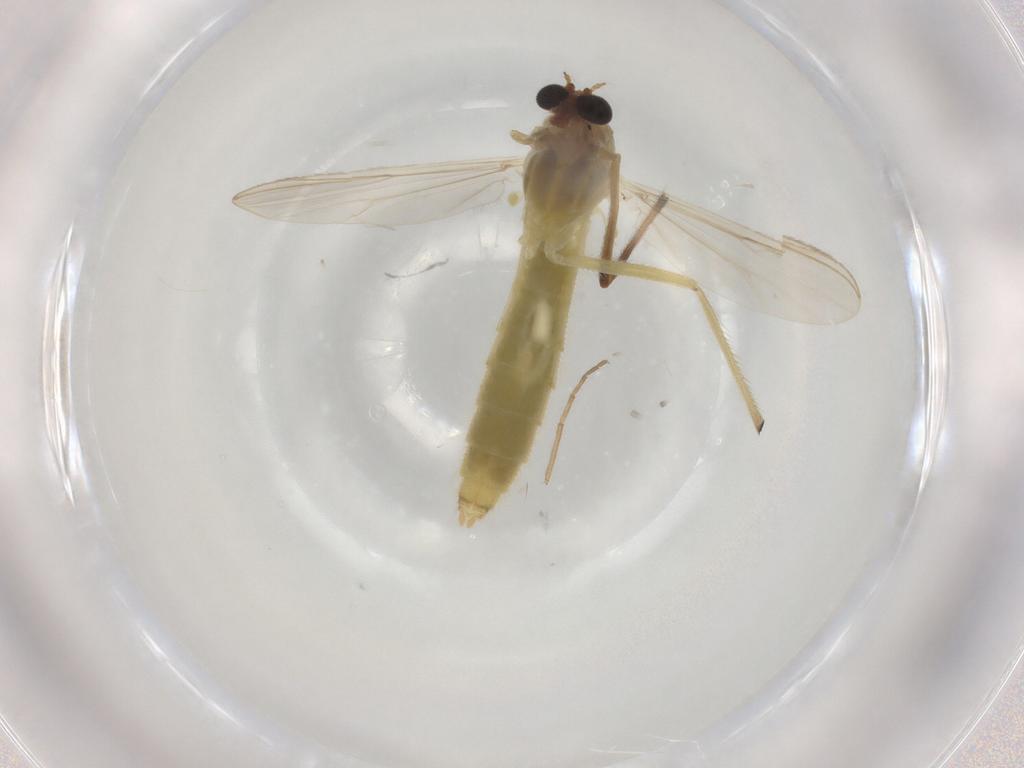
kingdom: Animalia
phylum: Arthropoda
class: Insecta
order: Diptera
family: Chironomidae
